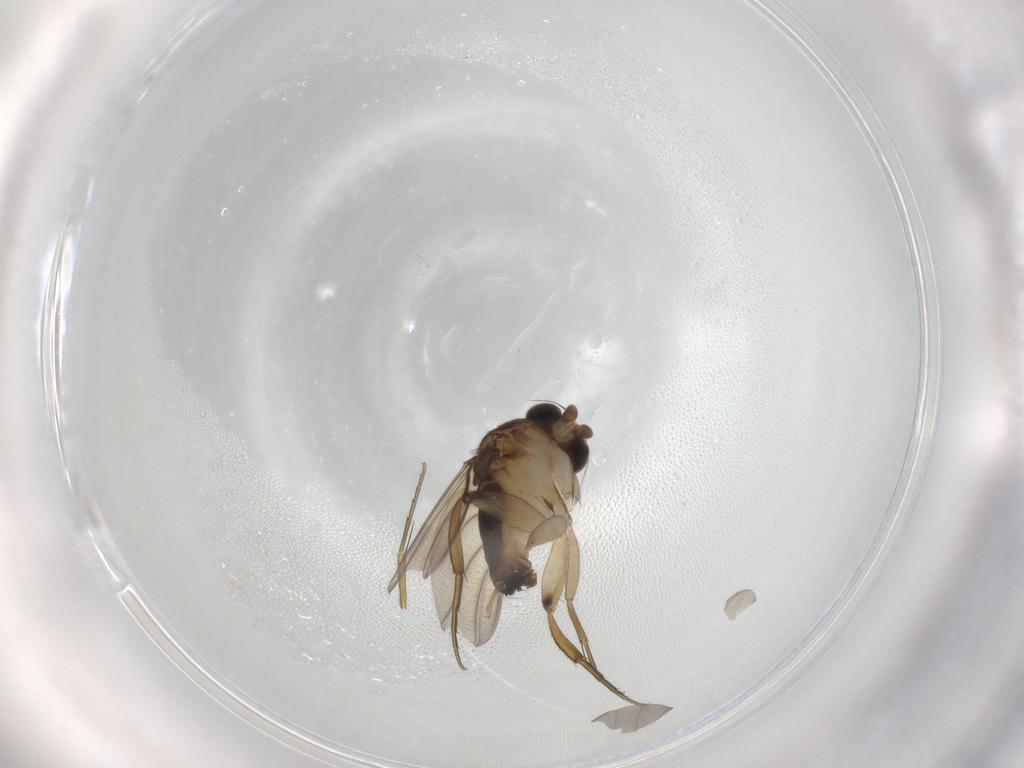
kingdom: Animalia
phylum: Arthropoda
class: Insecta
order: Diptera
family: Phoridae
